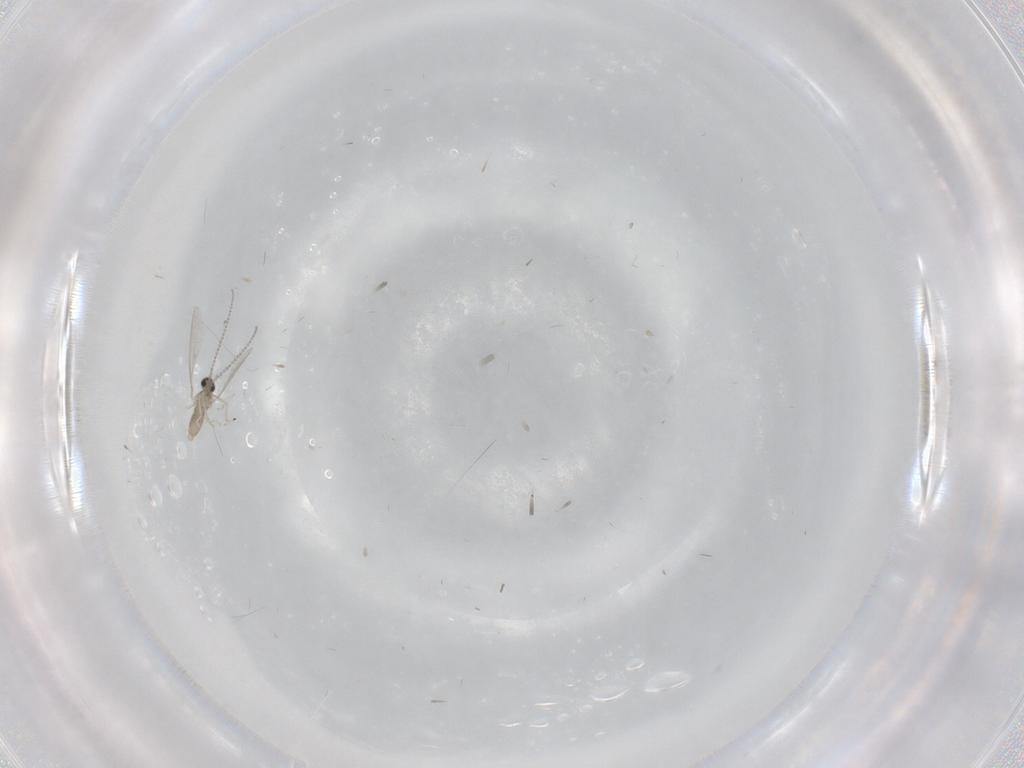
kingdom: Animalia
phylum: Arthropoda
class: Insecta
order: Diptera
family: Cecidomyiidae
